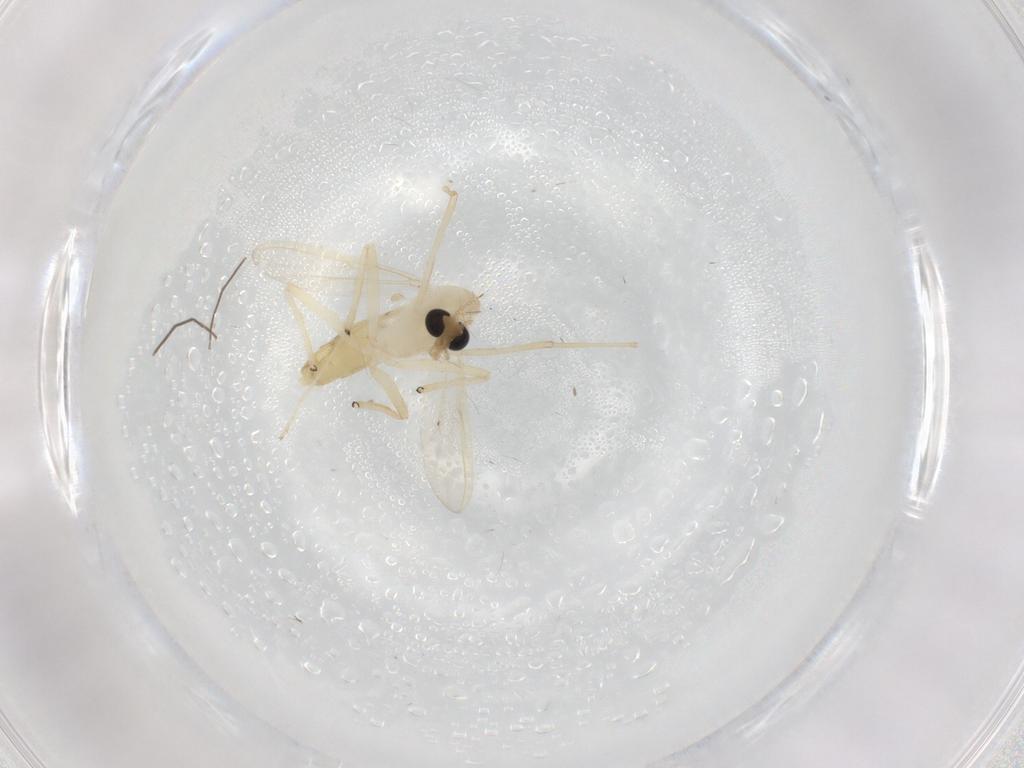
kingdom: Animalia
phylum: Arthropoda
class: Insecta
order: Diptera
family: Chironomidae
